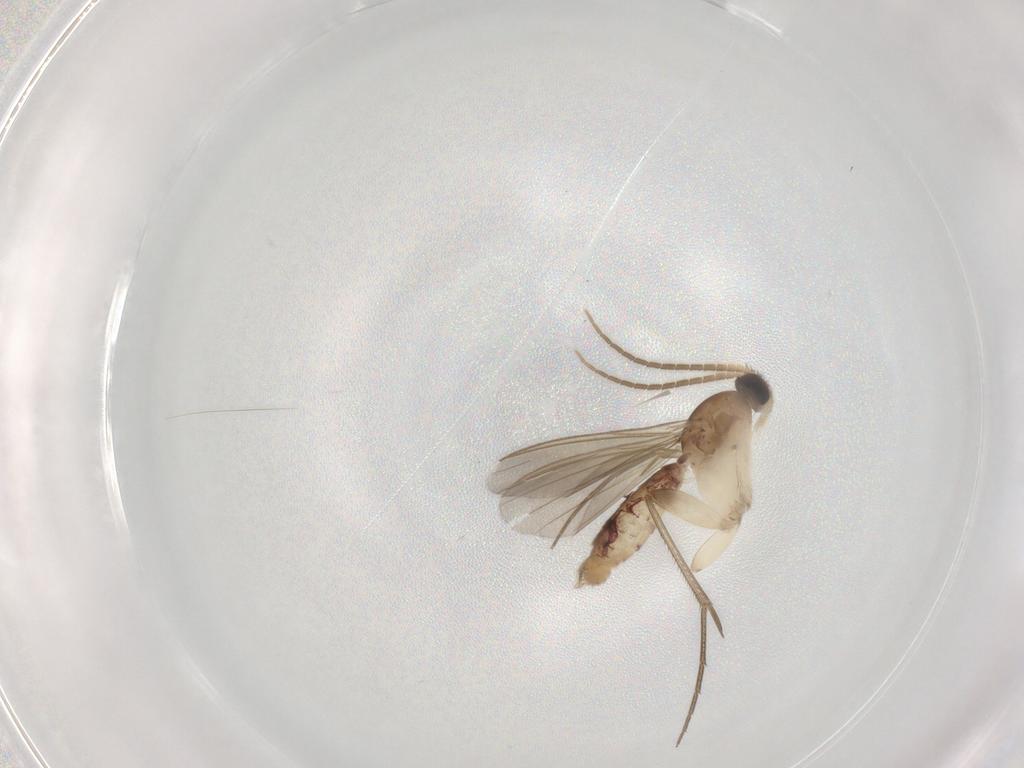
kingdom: Animalia
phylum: Arthropoda
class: Insecta
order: Diptera
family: Mycetophilidae
